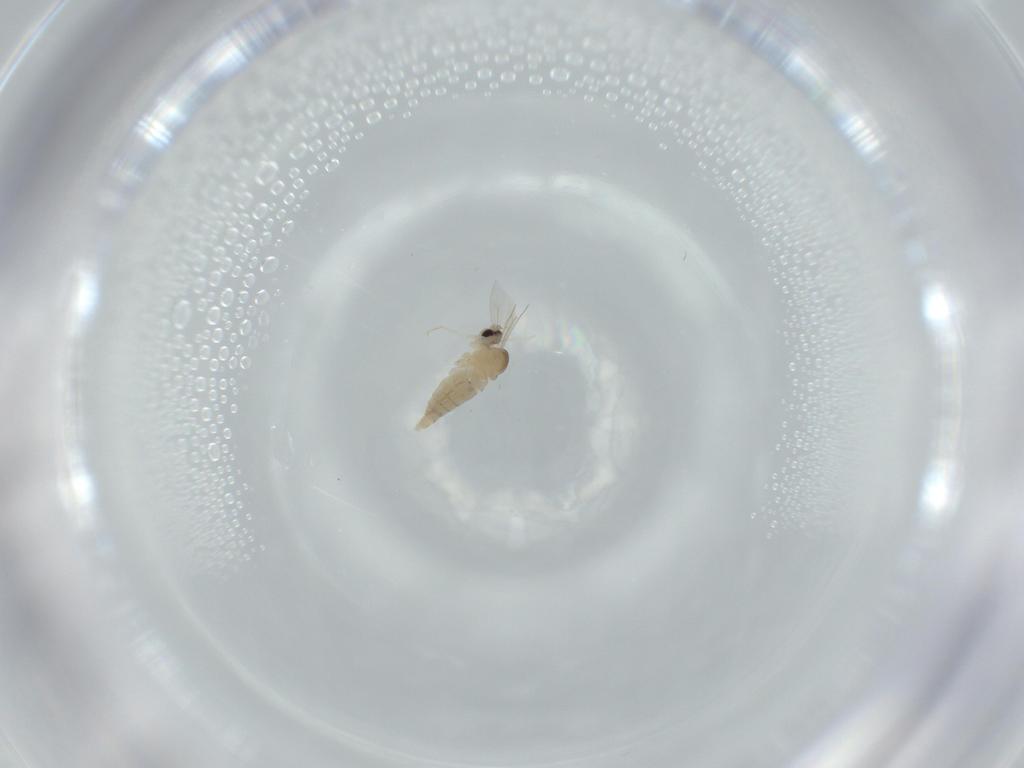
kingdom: Animalia
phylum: Arthropoda
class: Insecta
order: Diptera
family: Cecidomyiidae
